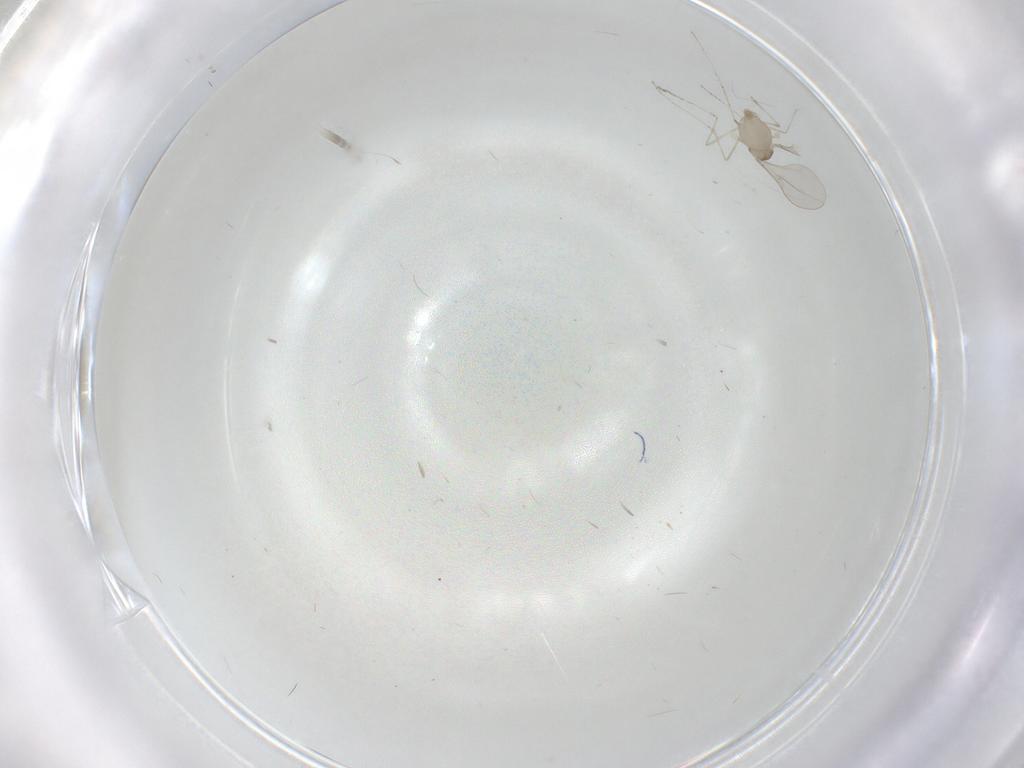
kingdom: Animalia
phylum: Arthropoda
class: Insecta
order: Diptera
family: Cecidomyiidae
